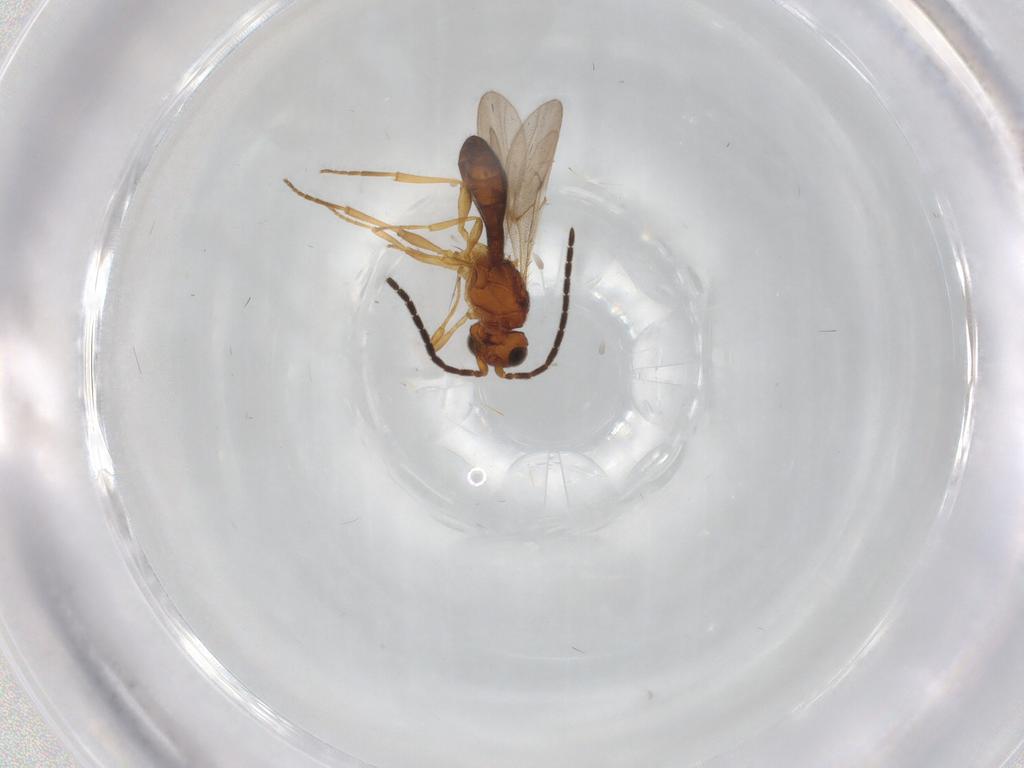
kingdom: Animalia
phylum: Arthropoda
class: Insecta
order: Hymenoptera
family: Scelionidae
